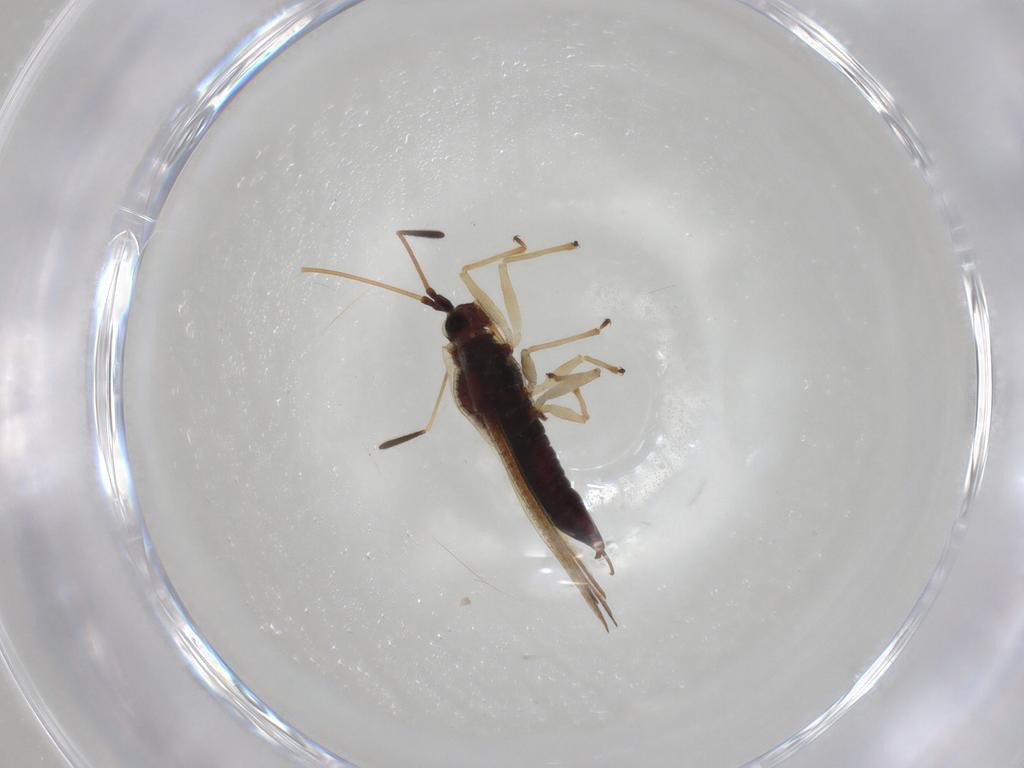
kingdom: Animalia
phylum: Arthropoda
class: Insecta
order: Hemiptera
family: Tingidae
